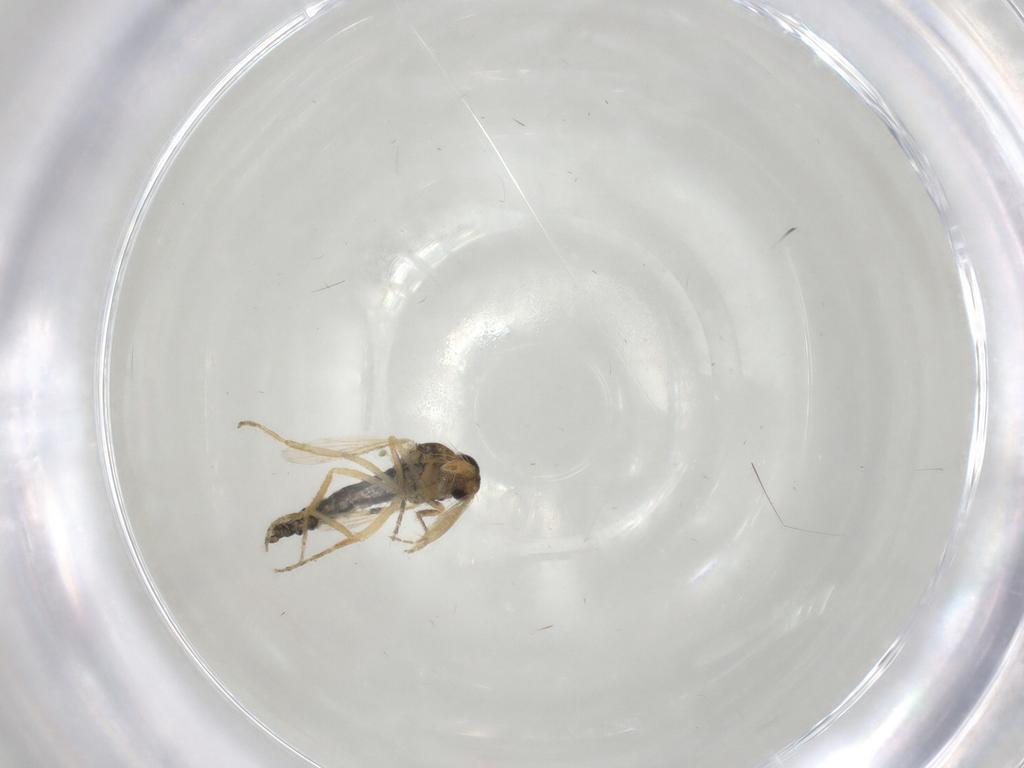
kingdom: Animalia
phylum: Arthropoda
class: Insecta
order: Diptera
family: Ceratopogonidae
